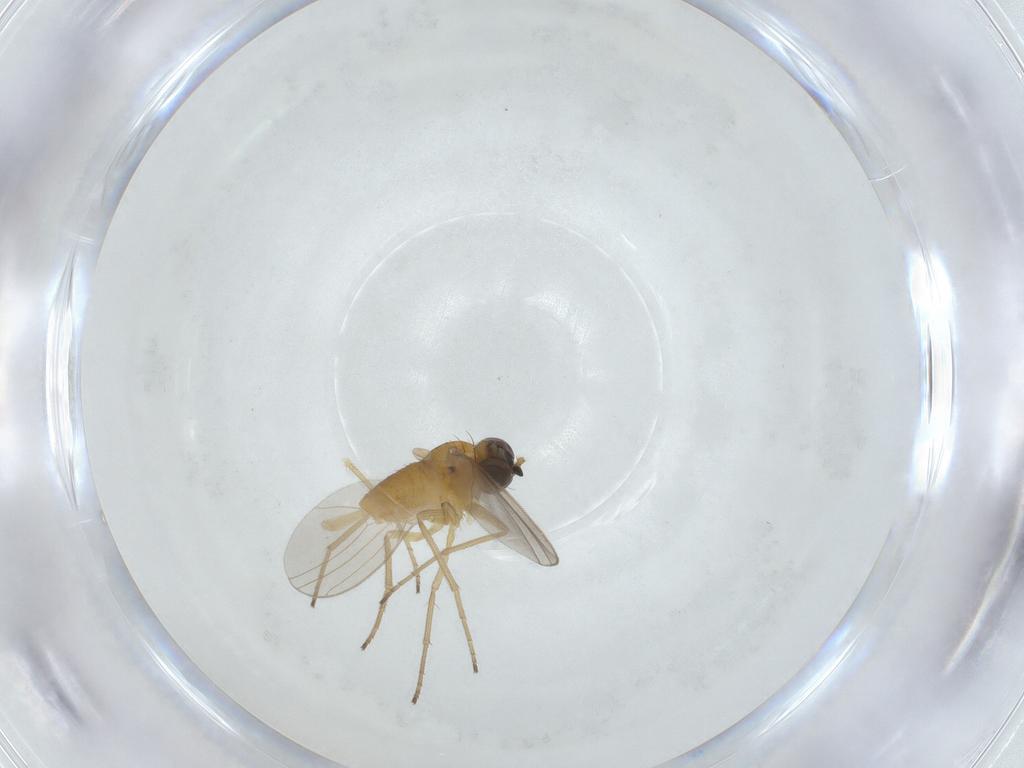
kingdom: Animalia
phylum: Arthropoda
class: Insecta
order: Diptera
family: Dolichopodidae
